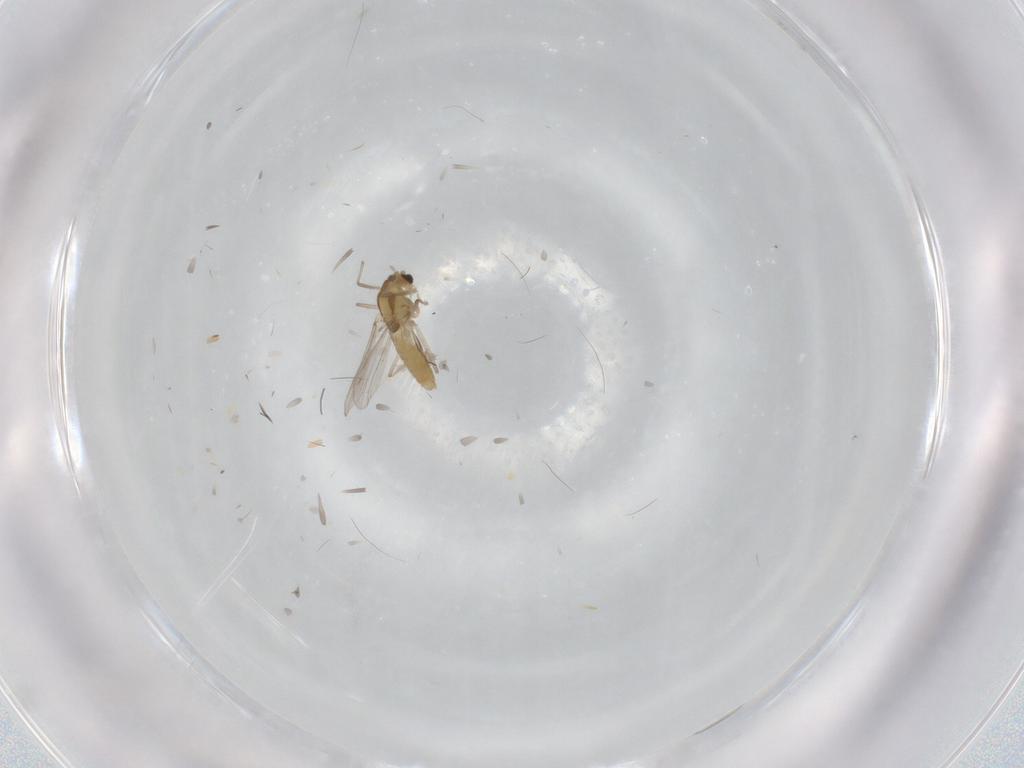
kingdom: Animalia
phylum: Arthropoda
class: Insecta
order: Diptera
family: Chironomidae
